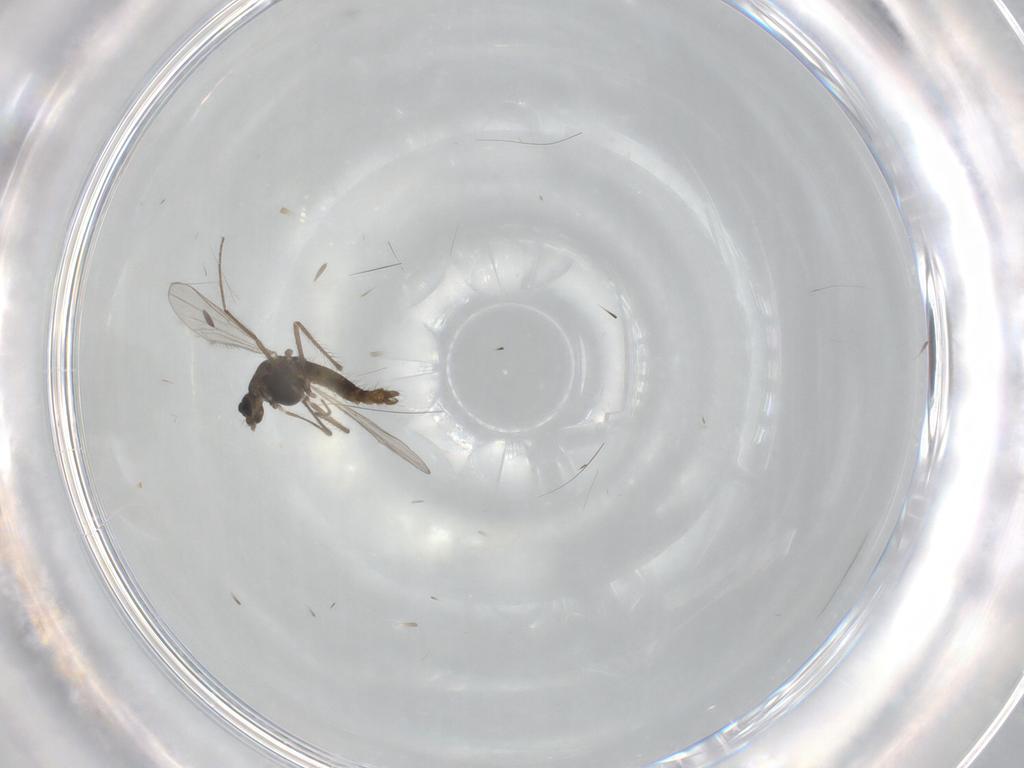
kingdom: Animalia
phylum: Arthropoda
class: Insecta
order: Diptera
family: Chironomidae
